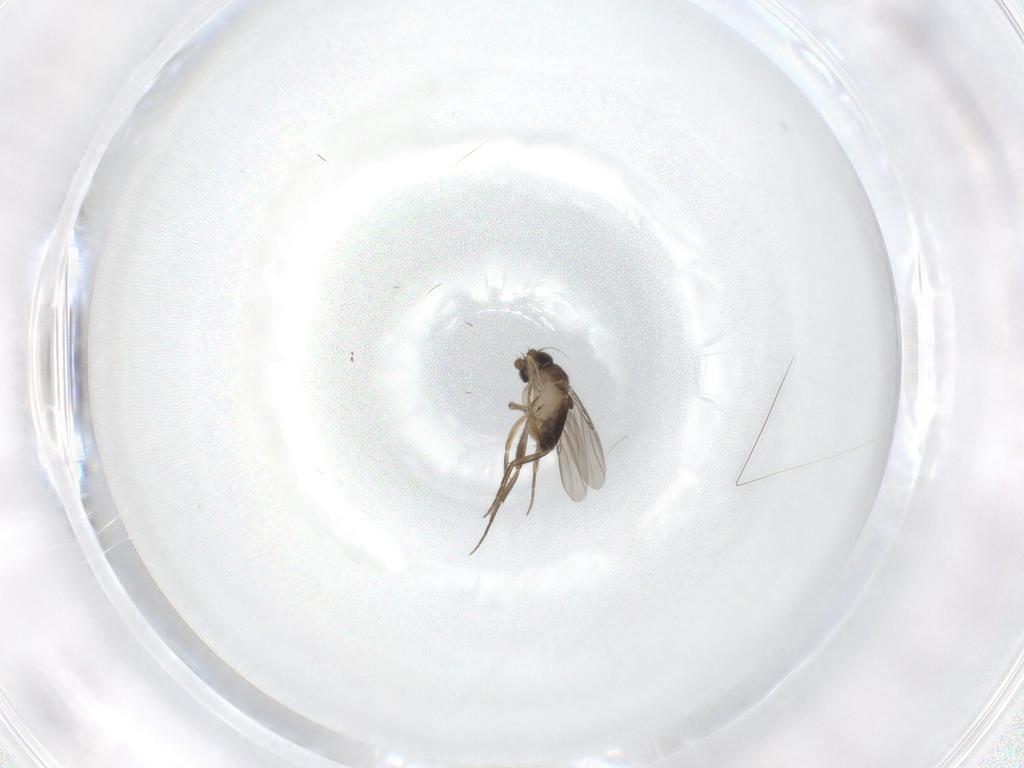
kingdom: Animalia
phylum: Arthropoda
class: Insecta
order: Diptera
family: Phoridae
